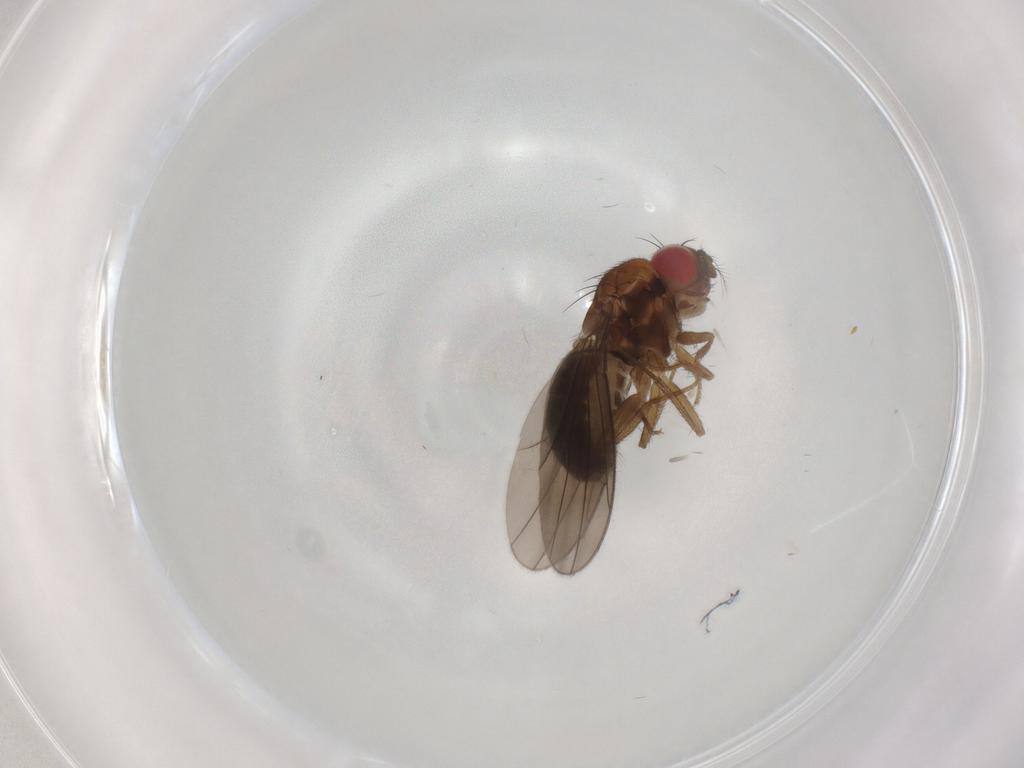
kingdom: Animalia
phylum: Arthropoda
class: Insecta
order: Diptera
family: Drosophilidae
